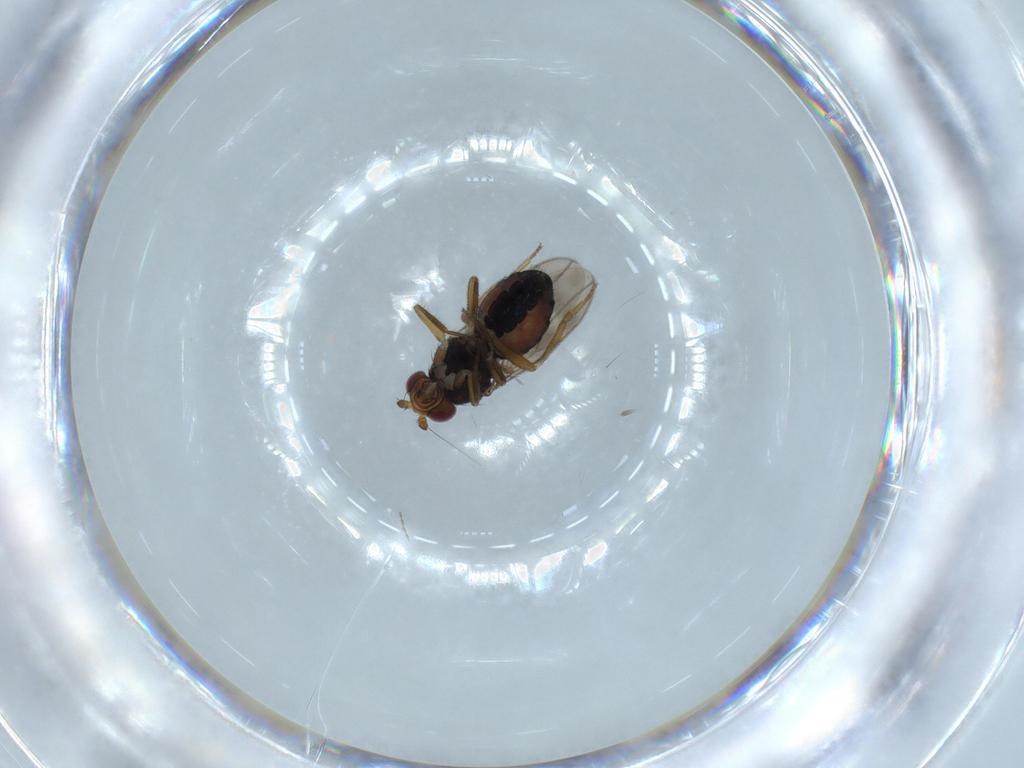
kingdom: Animalia
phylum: Arthropoda
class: Insecta
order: Diptera
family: Sphaeroceridae
